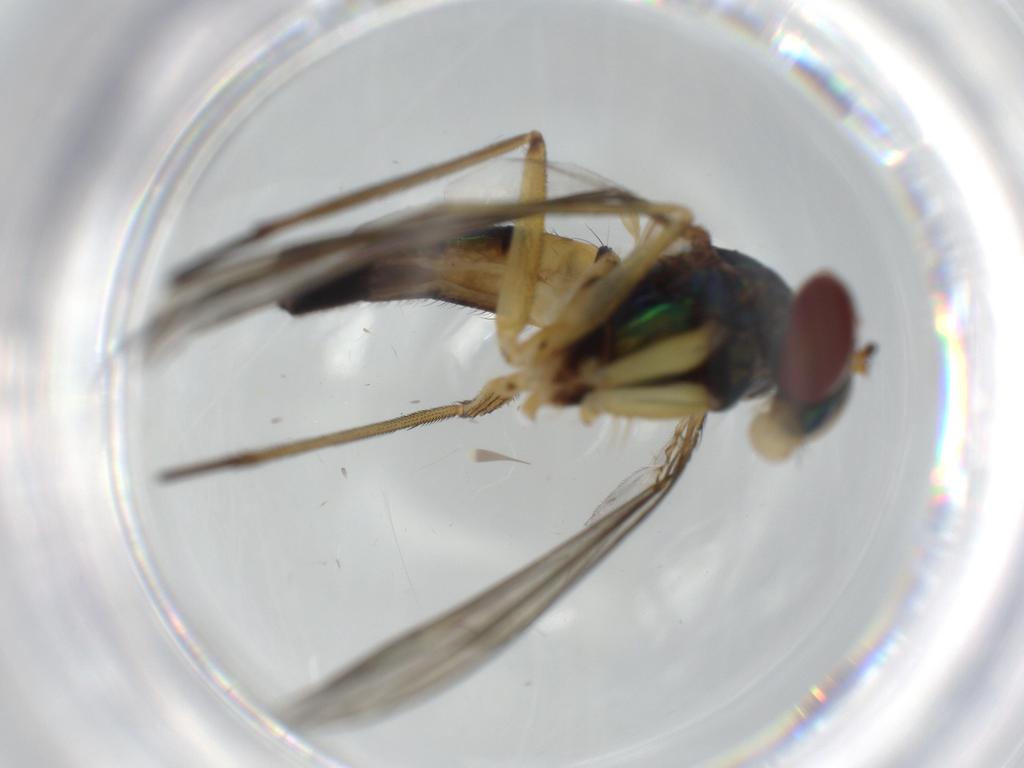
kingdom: Animalia
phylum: Arthropoda
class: Insecta
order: Diptera
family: Dolichopodidae
